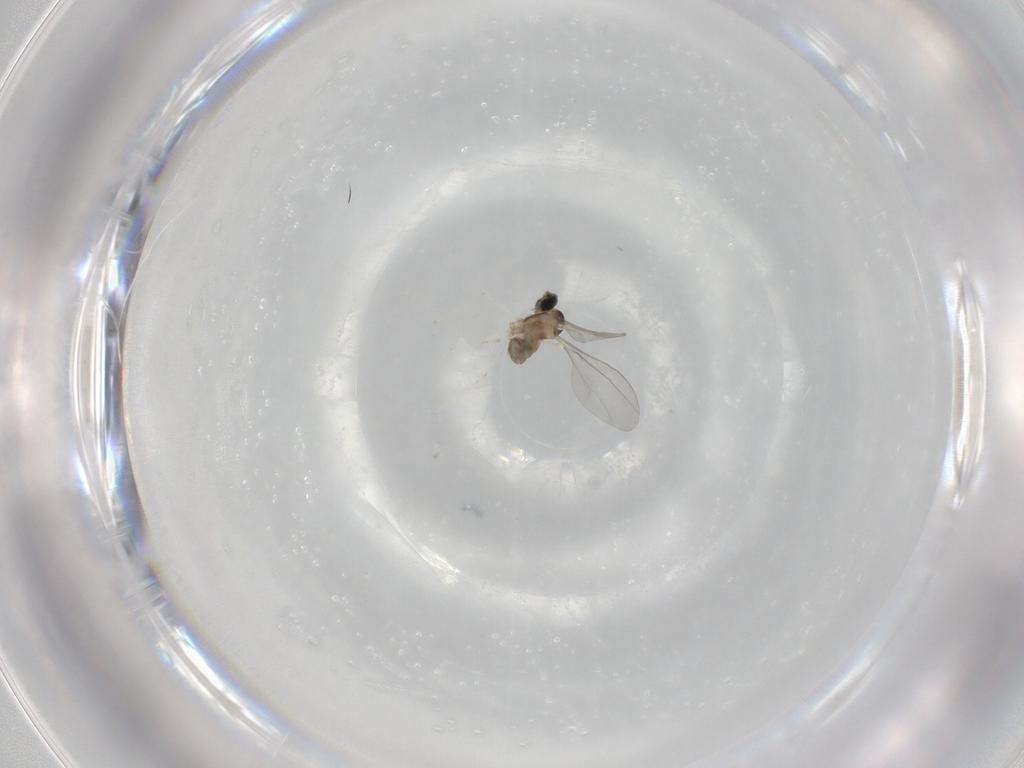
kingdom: Animalia
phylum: Arthropoda
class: Insecta
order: Diptera
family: Cecidomyiidae
